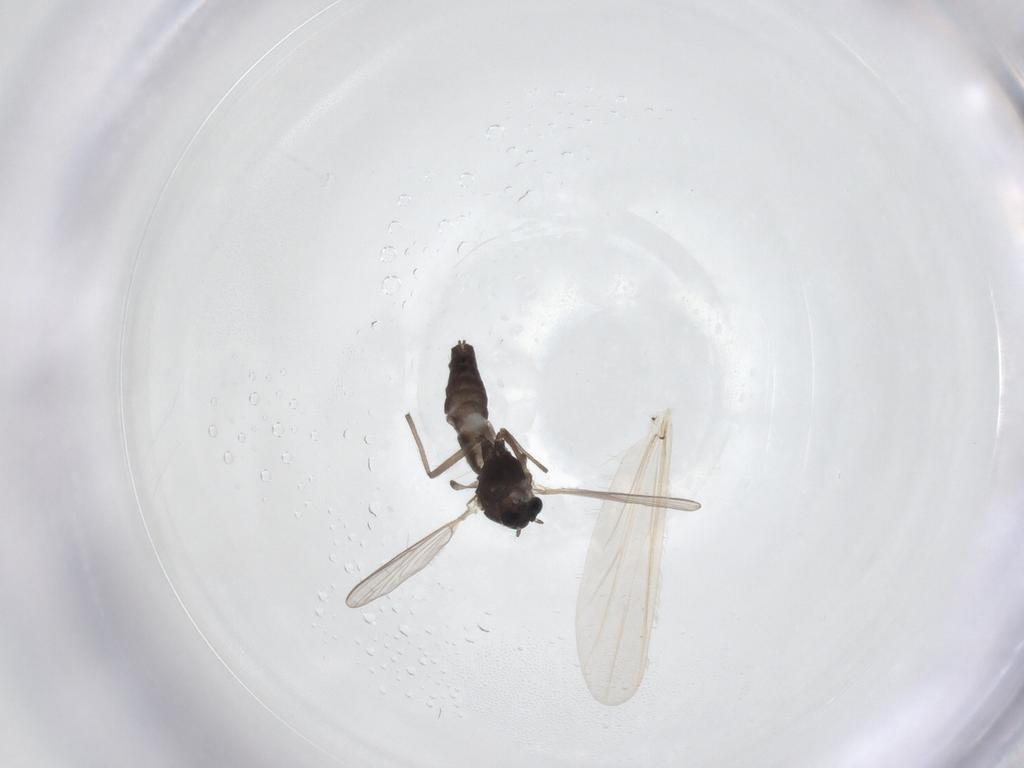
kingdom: Animalia
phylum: Arthropoda
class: Insecta
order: Diptera
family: Chironomidae
